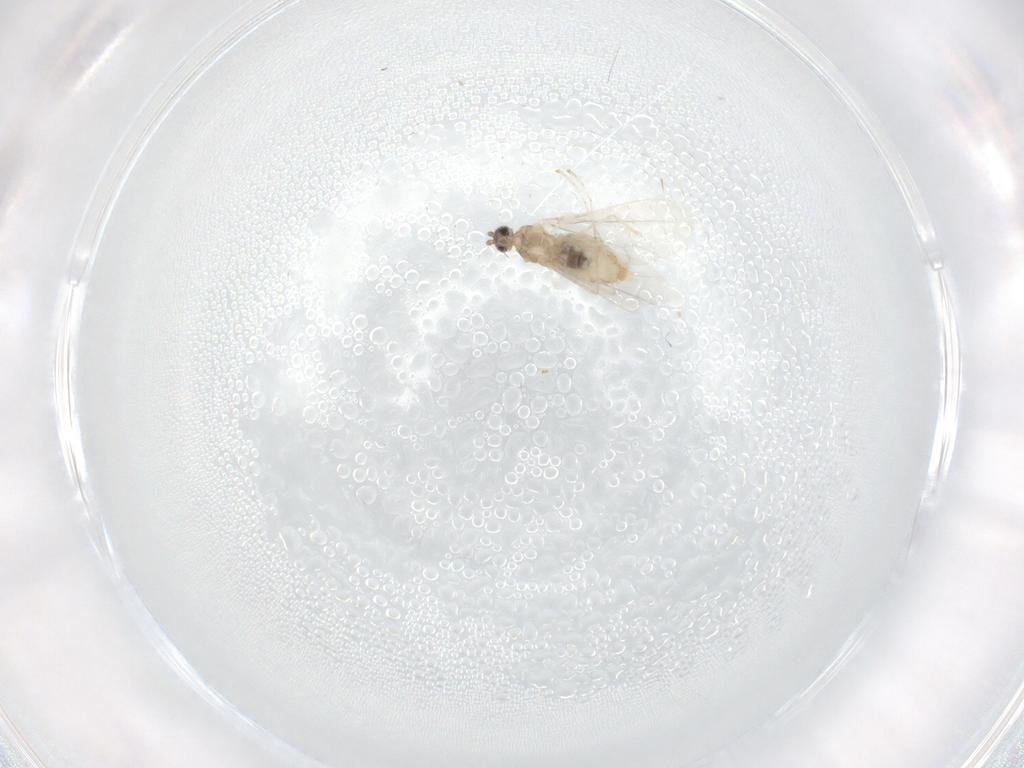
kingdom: Animalia
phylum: Arthropoda
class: Insecta
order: Diptera
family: Cecidomyiidae
